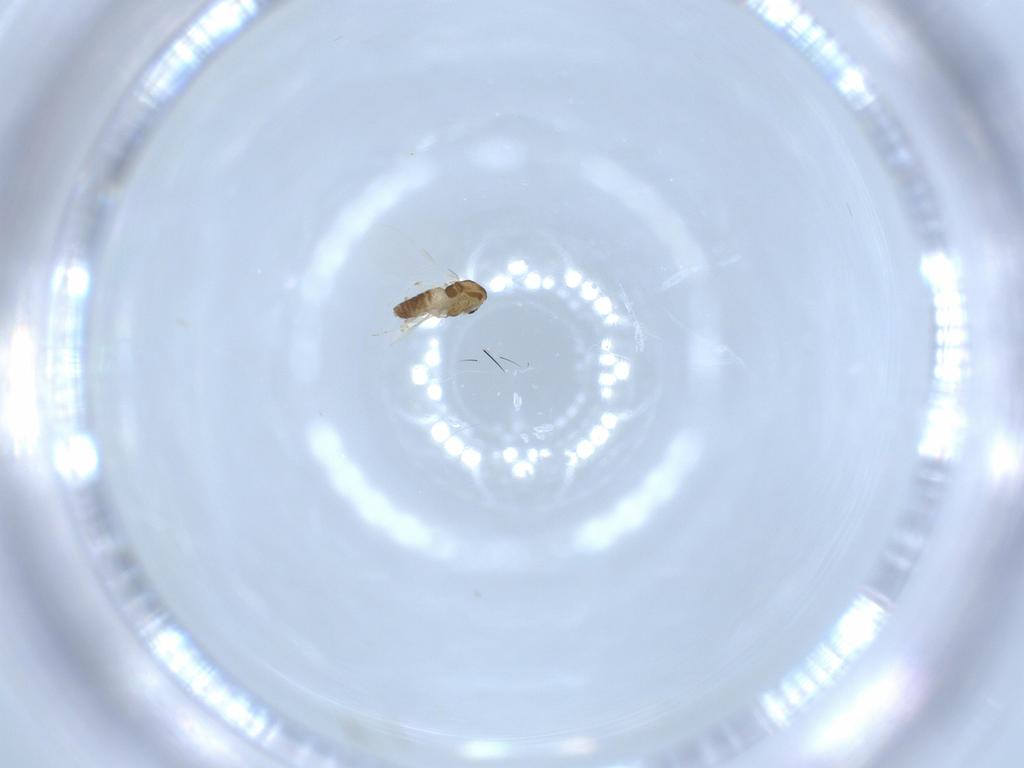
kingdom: Animalia
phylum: Arthropoda
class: Insecta
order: Diptera
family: Chironomidae
